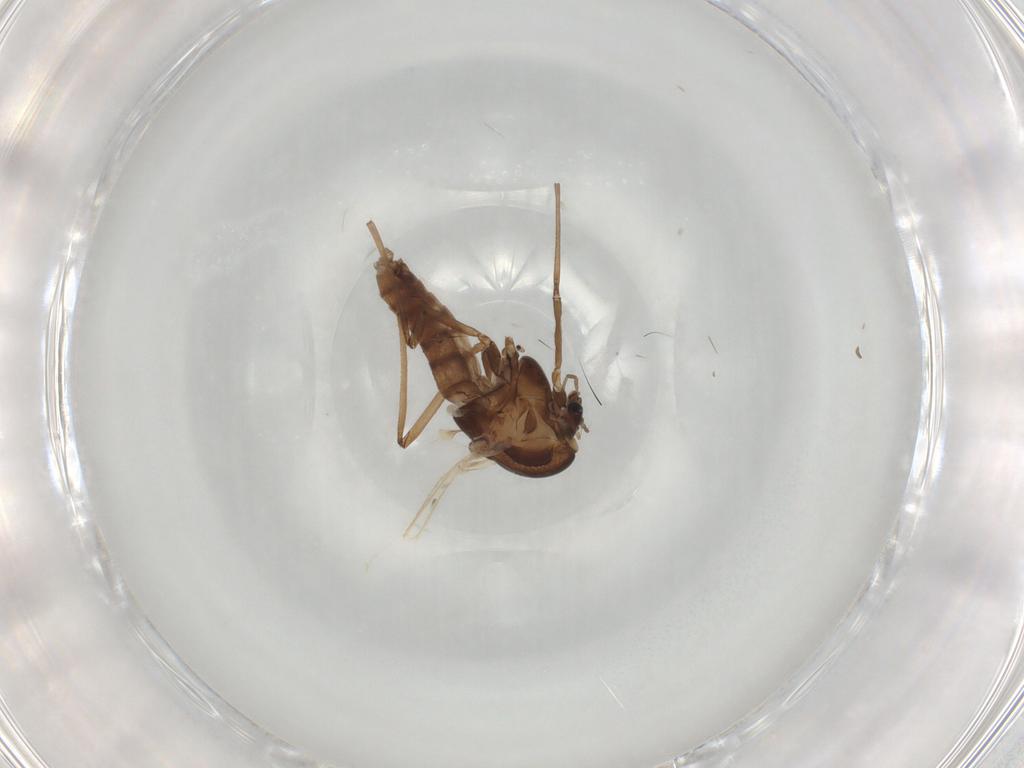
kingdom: Animalia
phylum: Arthropoda
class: Insecta
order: Diptera
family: Chironomidae
